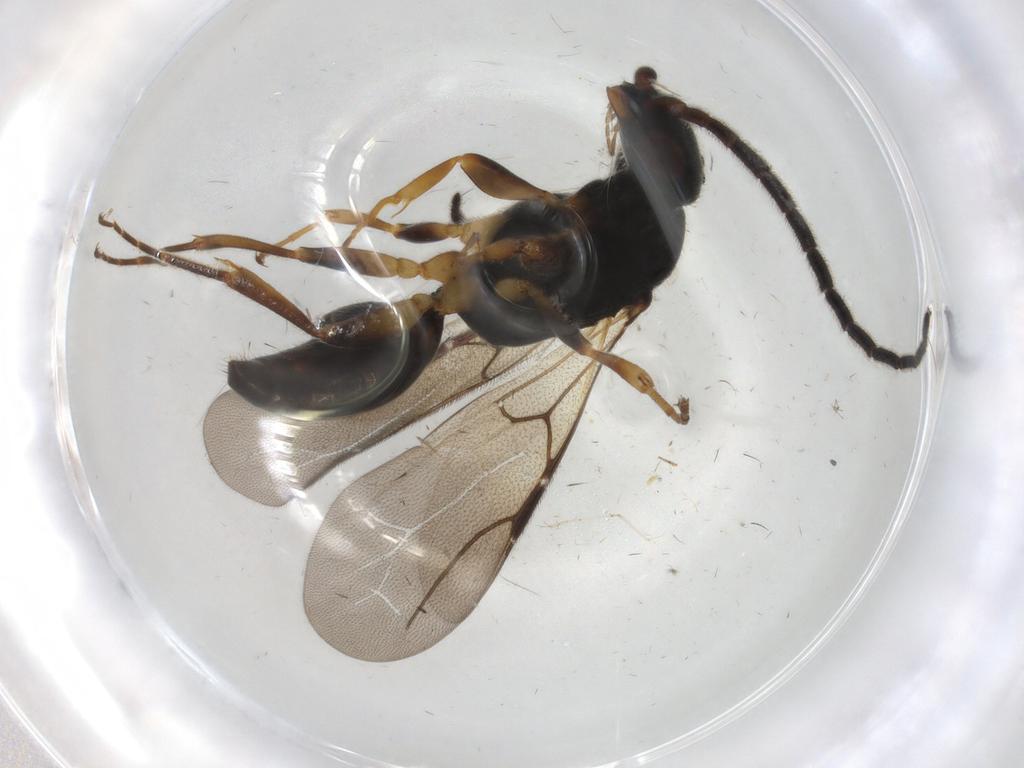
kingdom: Animalia
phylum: Arthropoda
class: Insecta
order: Hymenoptera
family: Bethylidae
